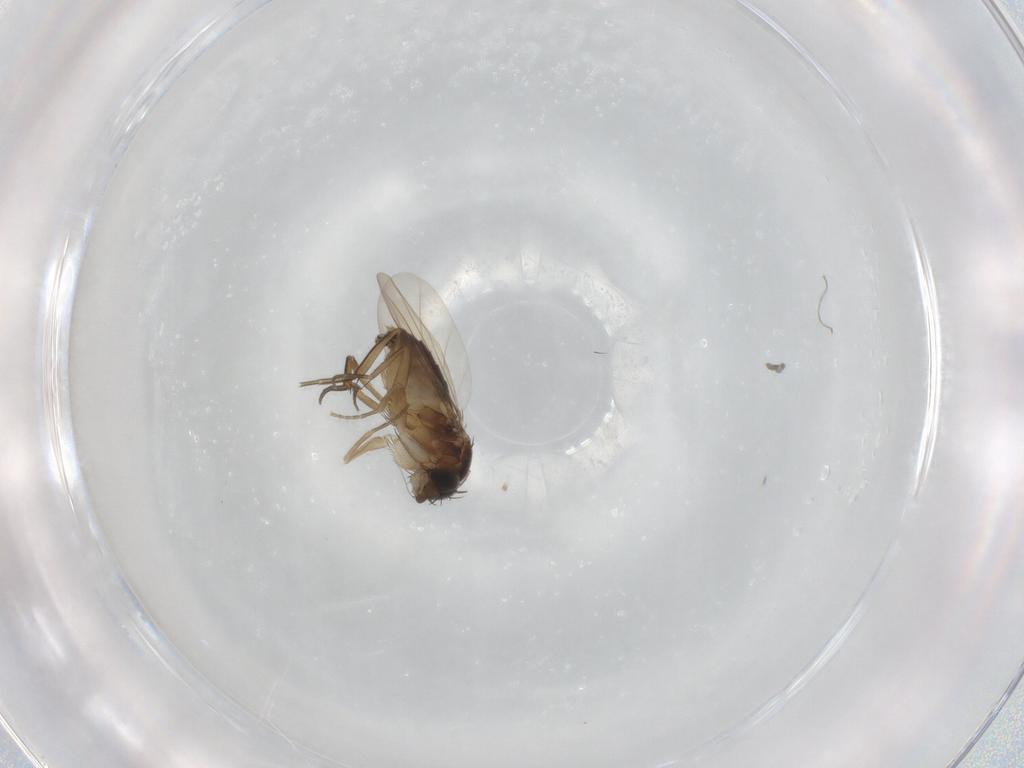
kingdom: Animalia
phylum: Arthropoda
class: Insecta
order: Diptera
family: Phoridae
